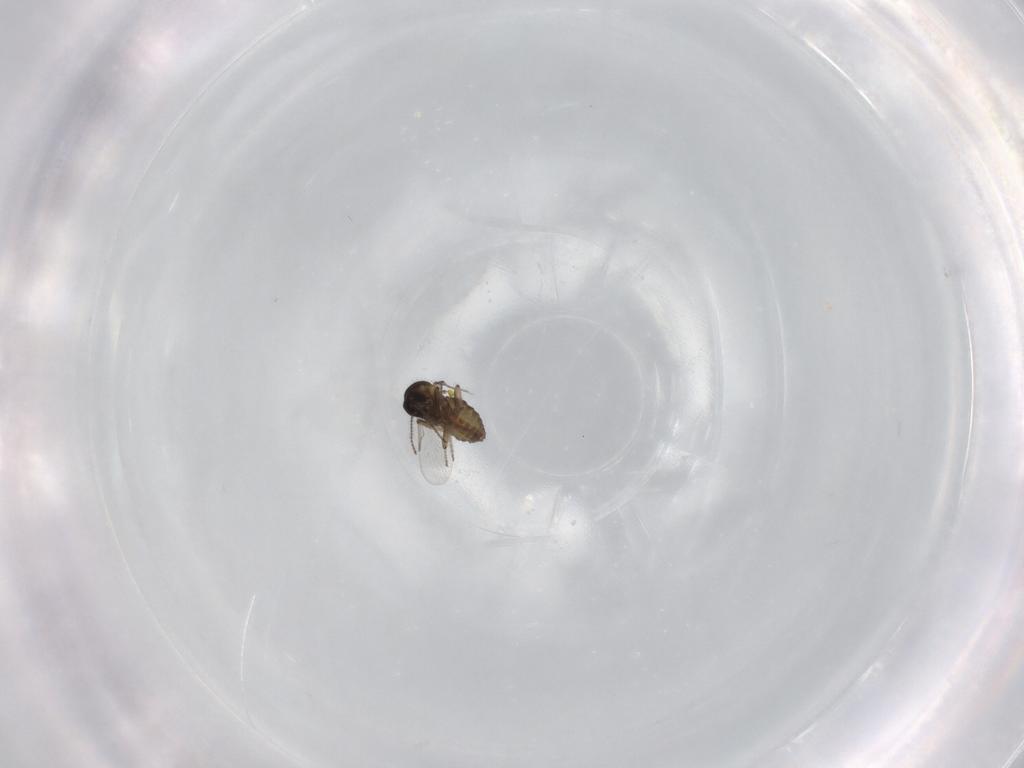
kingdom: Animalia
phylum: Arthropoda
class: Insecta
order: Diptera
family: Ceratopogonidae
